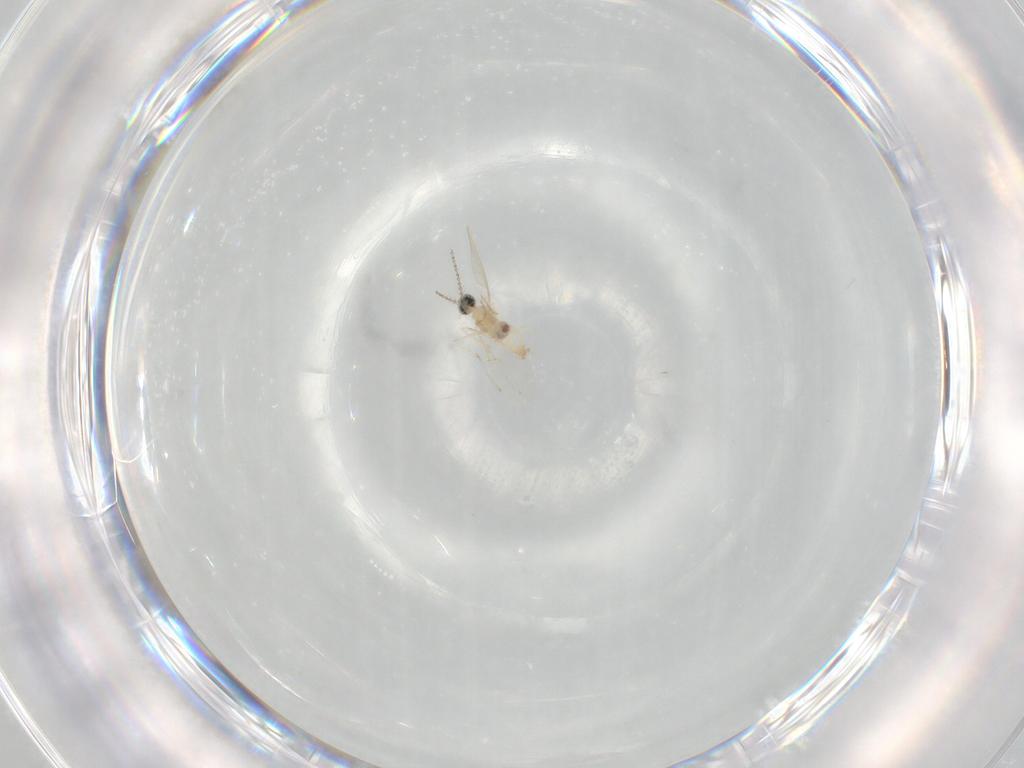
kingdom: Animalia
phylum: Arthropoda
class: Insecta
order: Diptera
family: Cecidomyiidae
